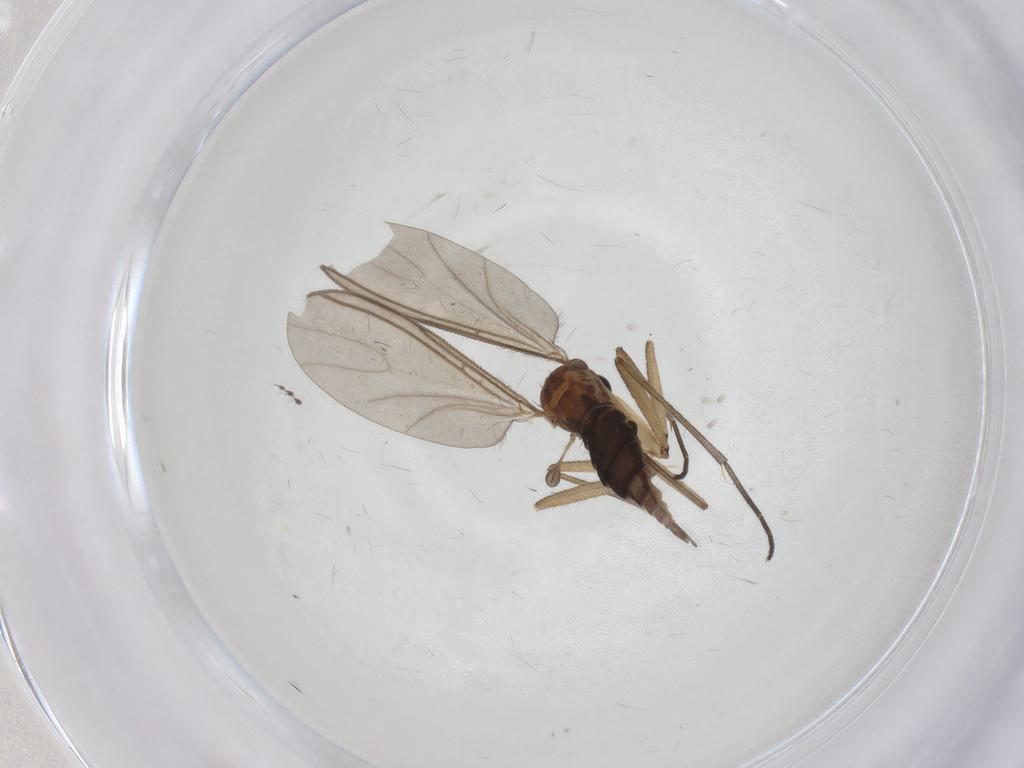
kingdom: Animalia
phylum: Arthropoda
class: Insecta
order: Diptera
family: Sciaridae
